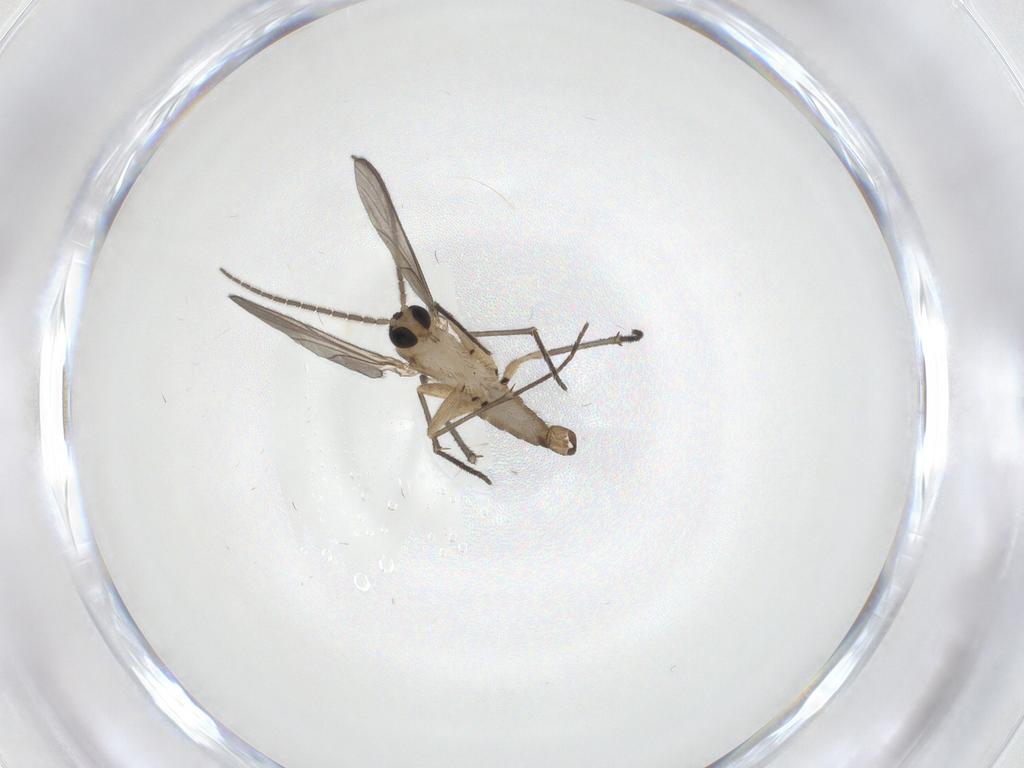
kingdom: Animalia
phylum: Arthropoda
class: Insecta
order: Diptera
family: Sciaridae
